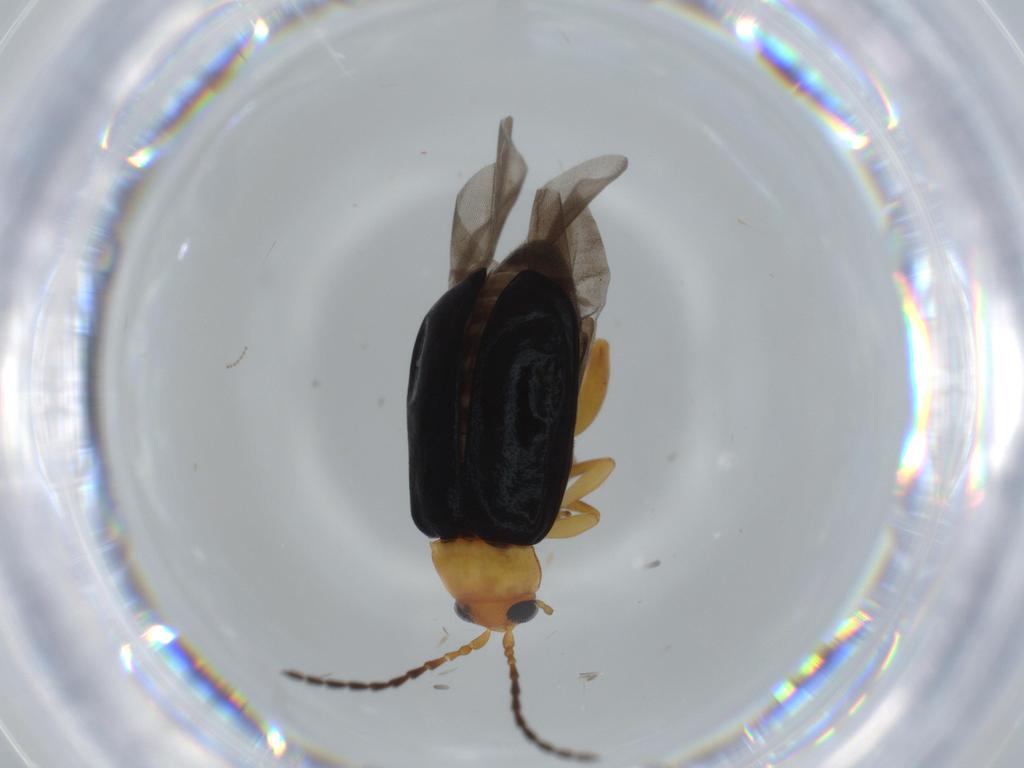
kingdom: Animalia
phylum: Arthropoda
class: Insecta
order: Coleoptera
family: Chrysomelidae
